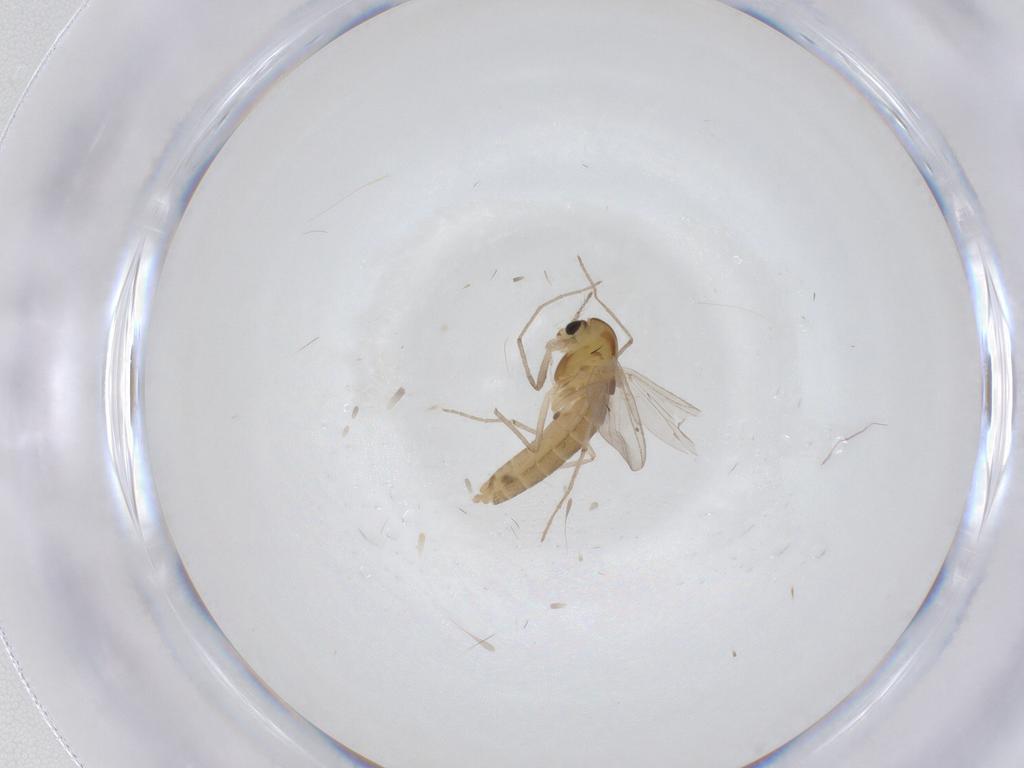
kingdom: Animalia
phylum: Arthropoda
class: Insecta
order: Diptera
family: Chironomidae
